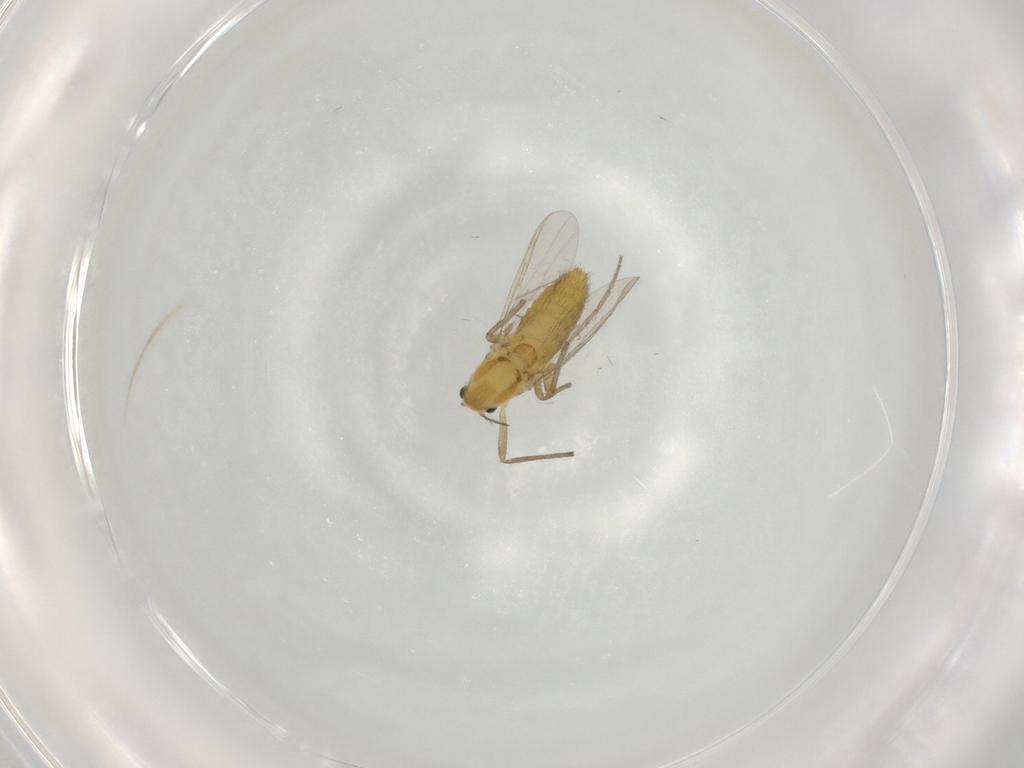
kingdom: Animalia
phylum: Arthropoda
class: Insecta
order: Diptera
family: Chironomidae
